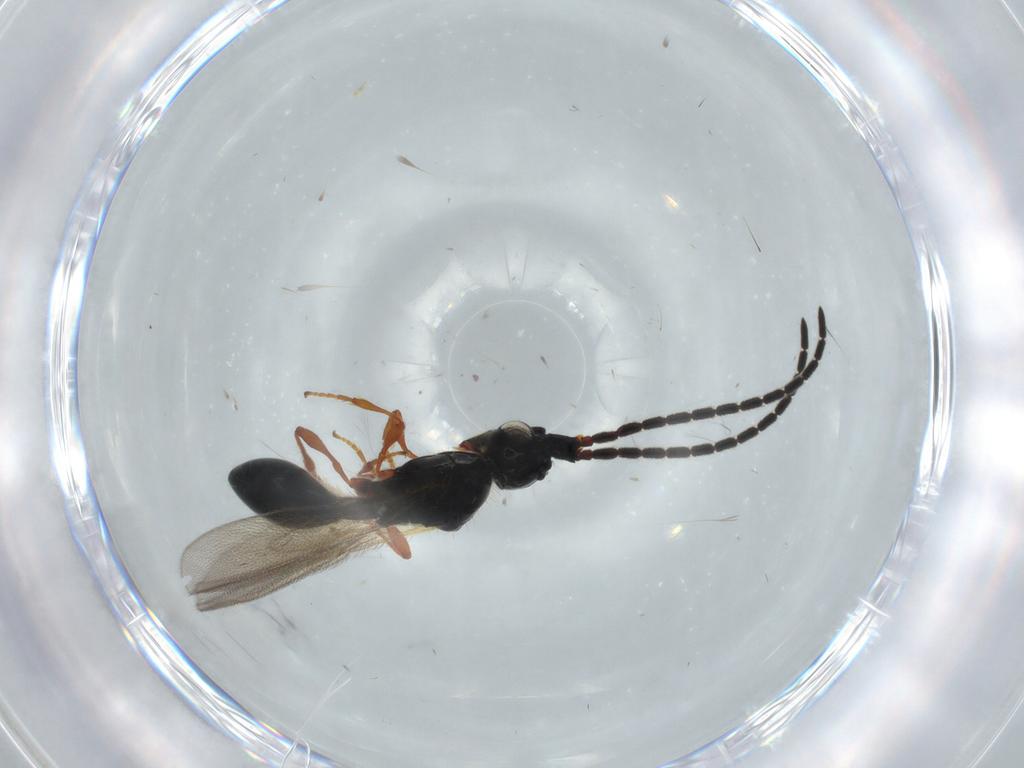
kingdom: Animalia
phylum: Arthropoda
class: Insecta
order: Hymenoptera
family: Diapriidae
